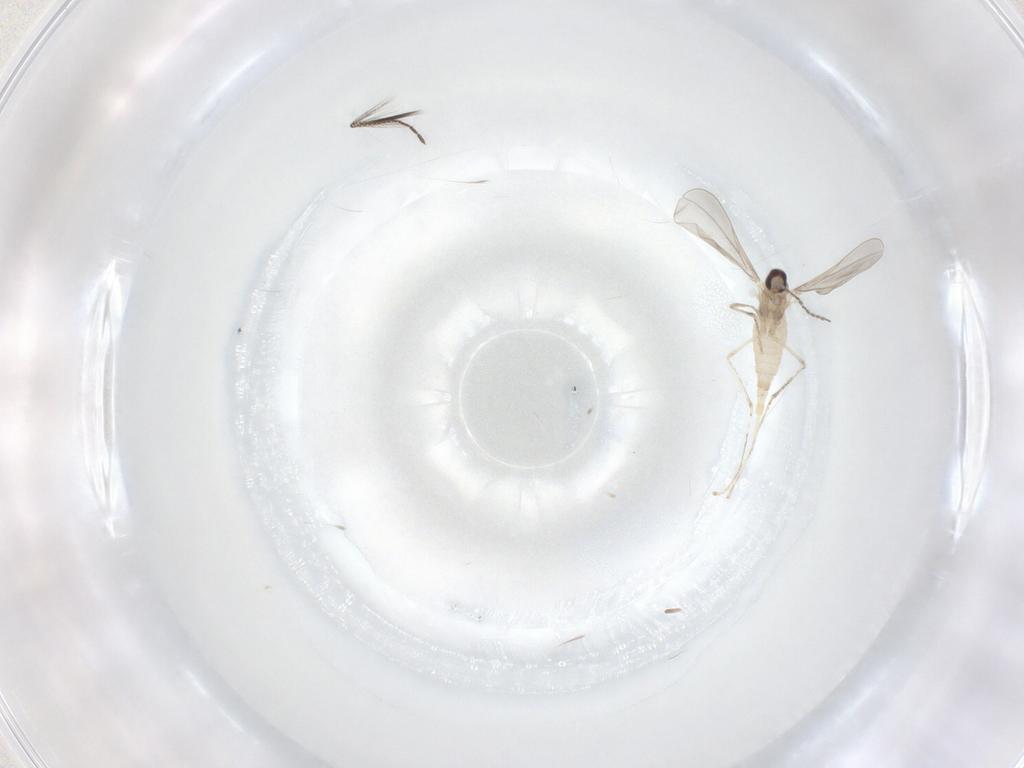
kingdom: Animalia
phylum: Arthropoda
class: Insecta
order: Diptera
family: Cecidomyiidae
